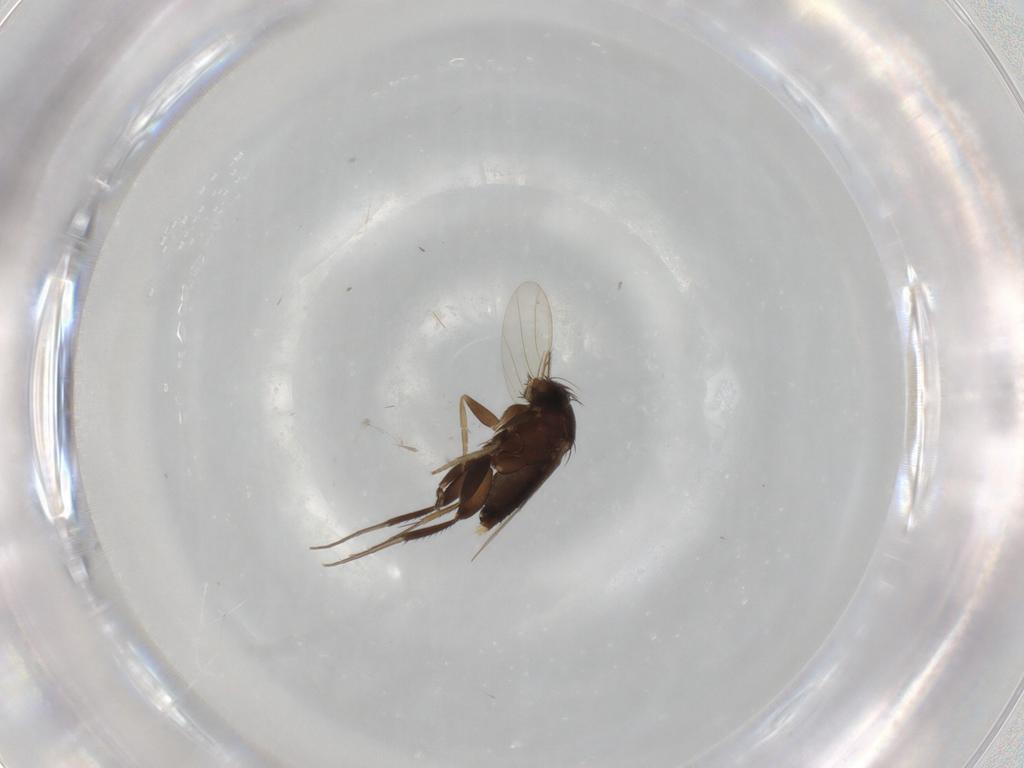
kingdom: Animalia
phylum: Arthropoda
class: Insecta
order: Diptera
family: Phoridae
